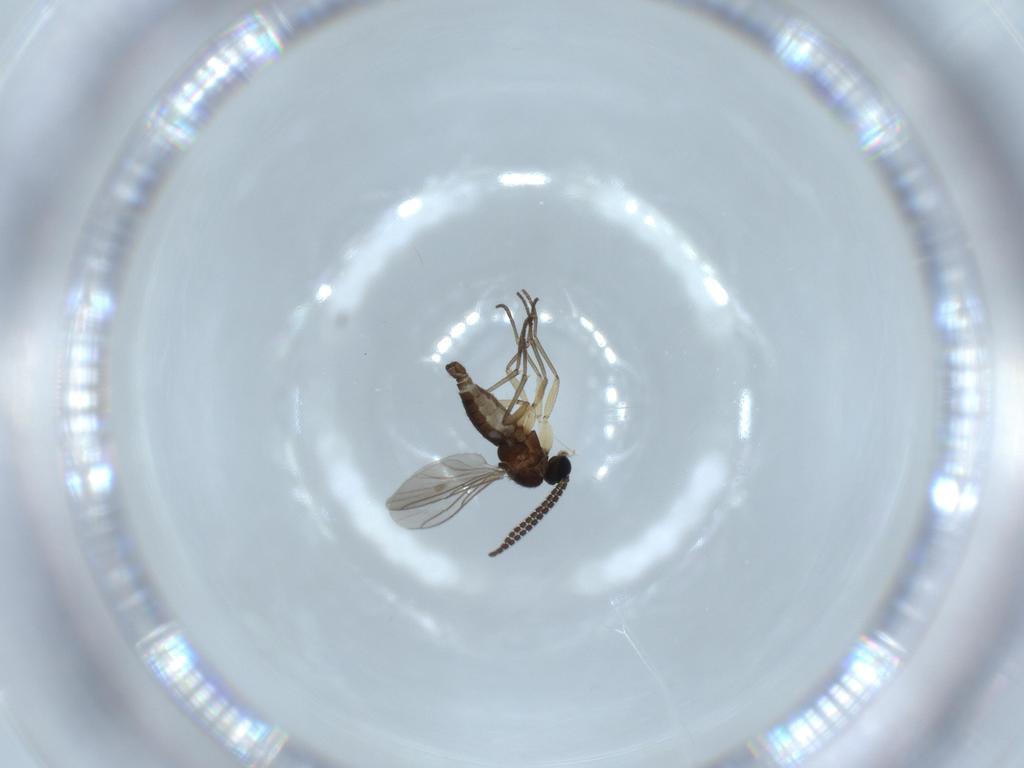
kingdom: Animalia
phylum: Arthropoda
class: Insecta
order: Diptera
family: Sciaridae
